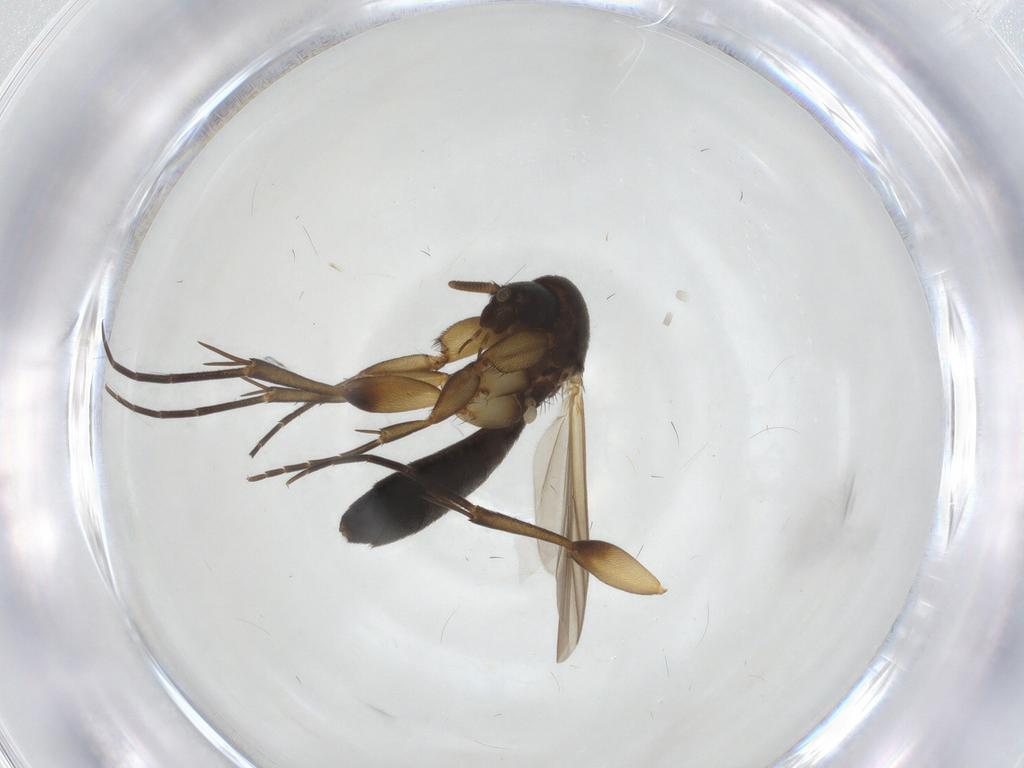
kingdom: Animalia
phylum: Arthropoda
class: Insecta
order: Diptera
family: Mycetophilidae
